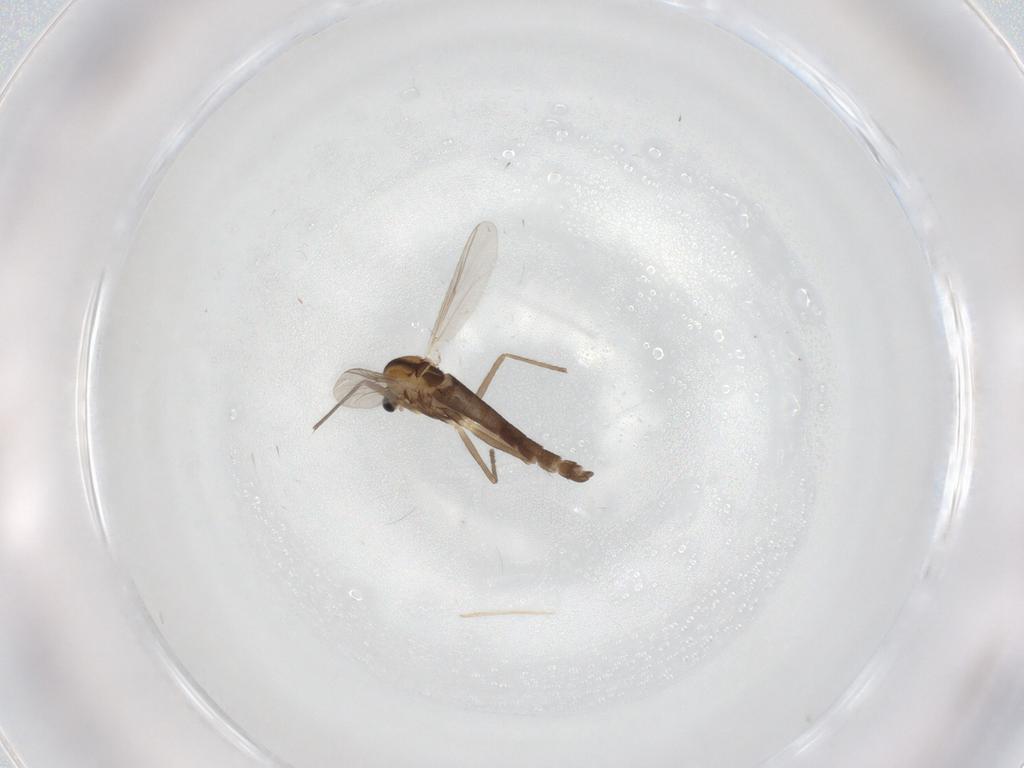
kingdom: Animalia
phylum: Arthropoda
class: Insecta
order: Diptera
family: Chironomidae
